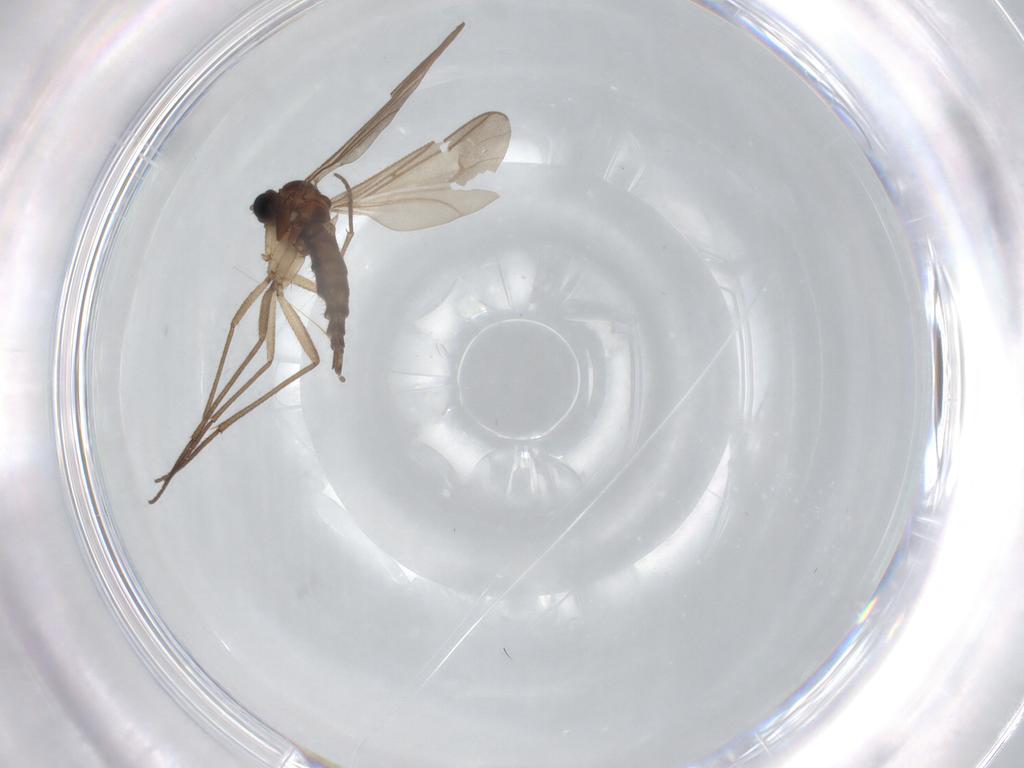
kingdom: Animalia
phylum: Arthropoda
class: Insecta
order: Diptera
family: Sciaridae
